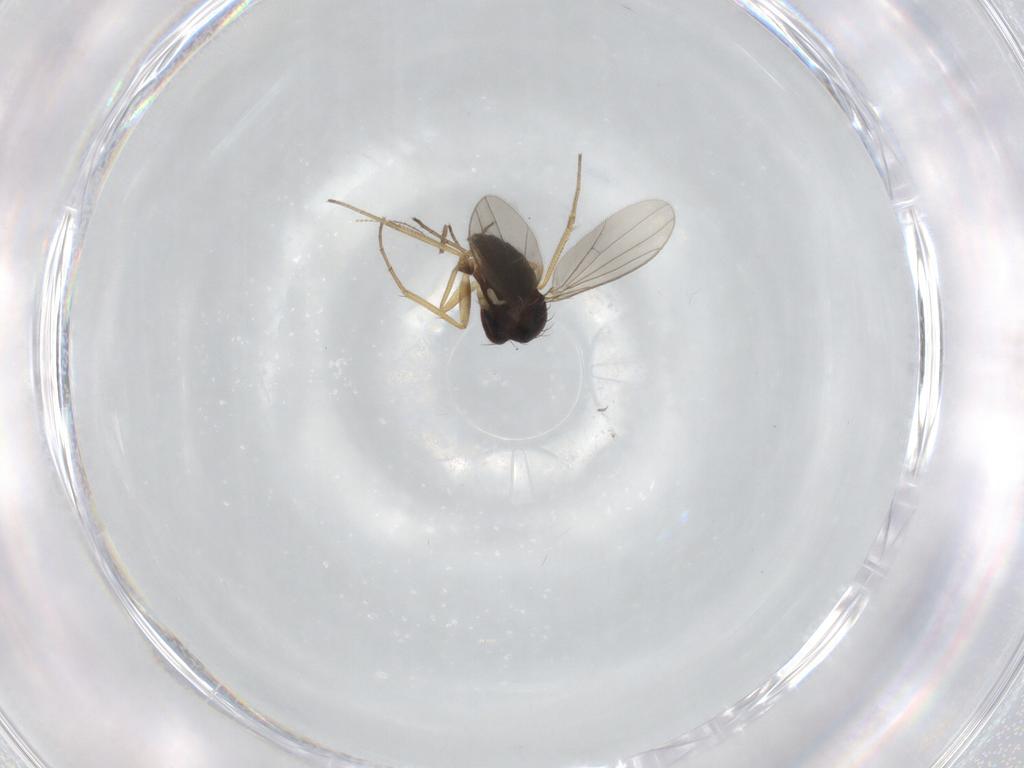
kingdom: Animalia
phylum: Arthropoda
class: Insecta
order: Diptera
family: Dolichopodidae
